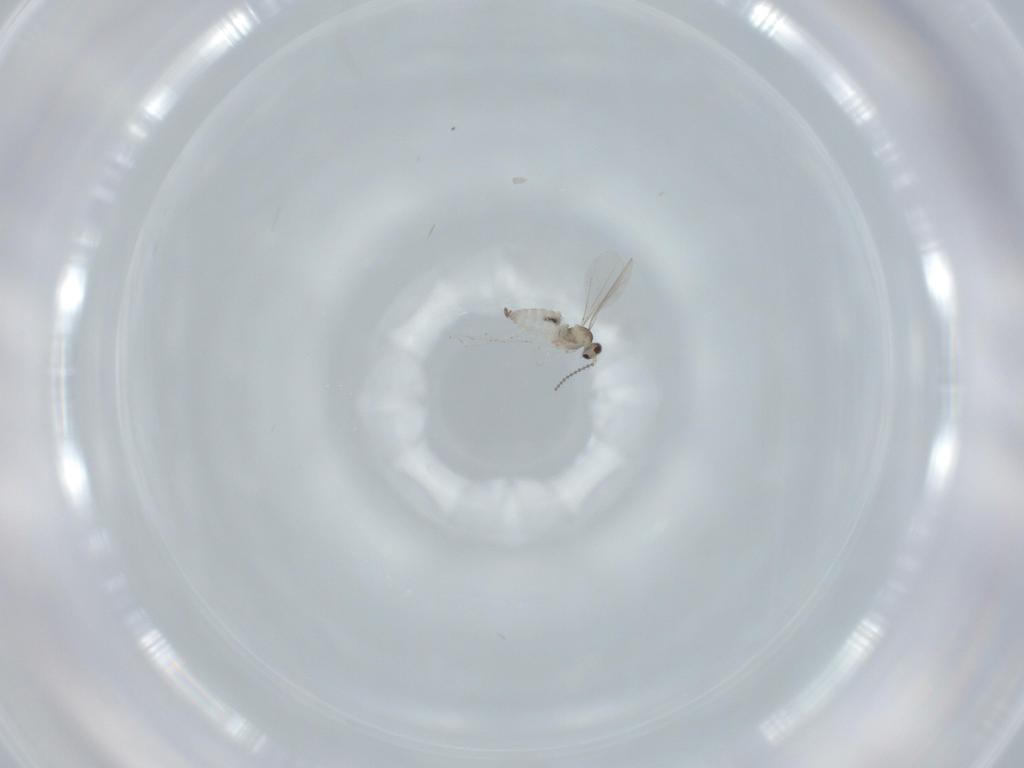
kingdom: Animalia
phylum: Arthropoda
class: Insecta
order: Diptera
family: Cecidomyiidae
